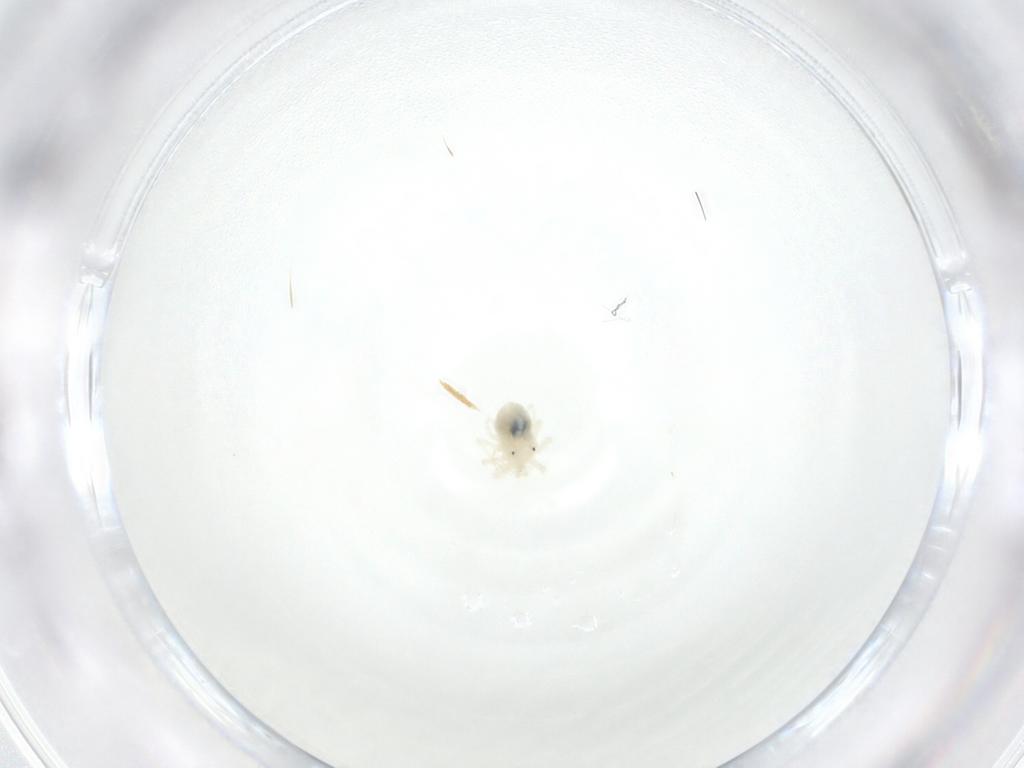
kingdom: Animalia
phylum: Arthropoda
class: Arachnida
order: Trombidiformes
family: Anystidae
